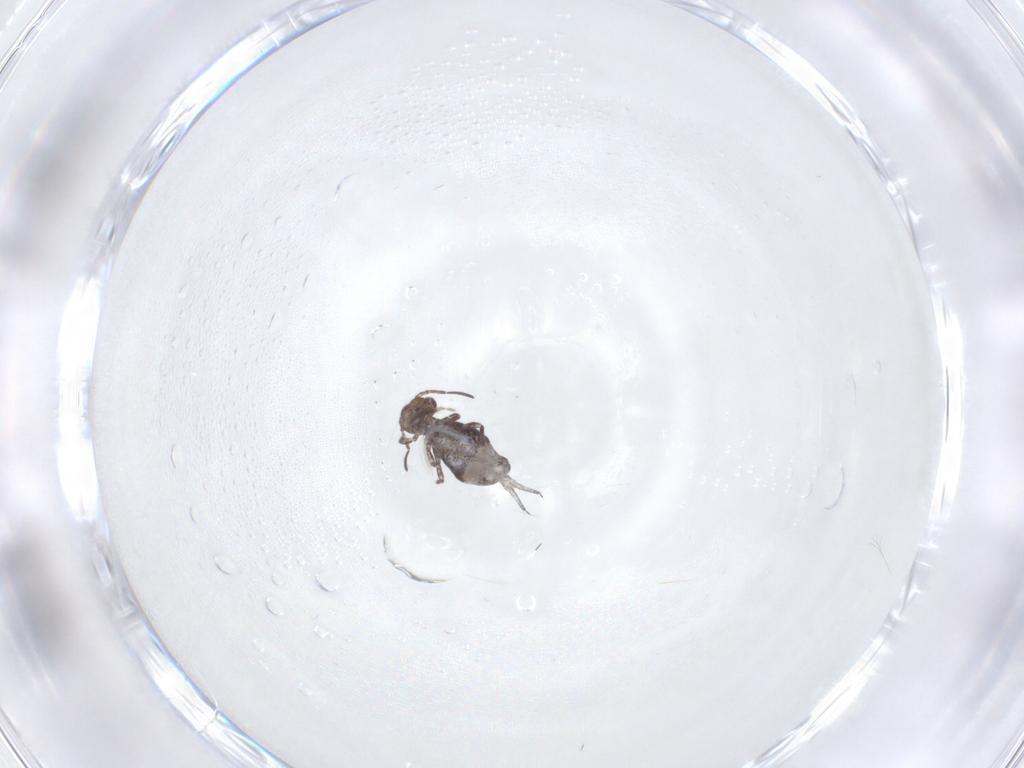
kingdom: Animalia
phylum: Arthropoda
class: Insecta
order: Diptera
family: Ceratopogonidae
